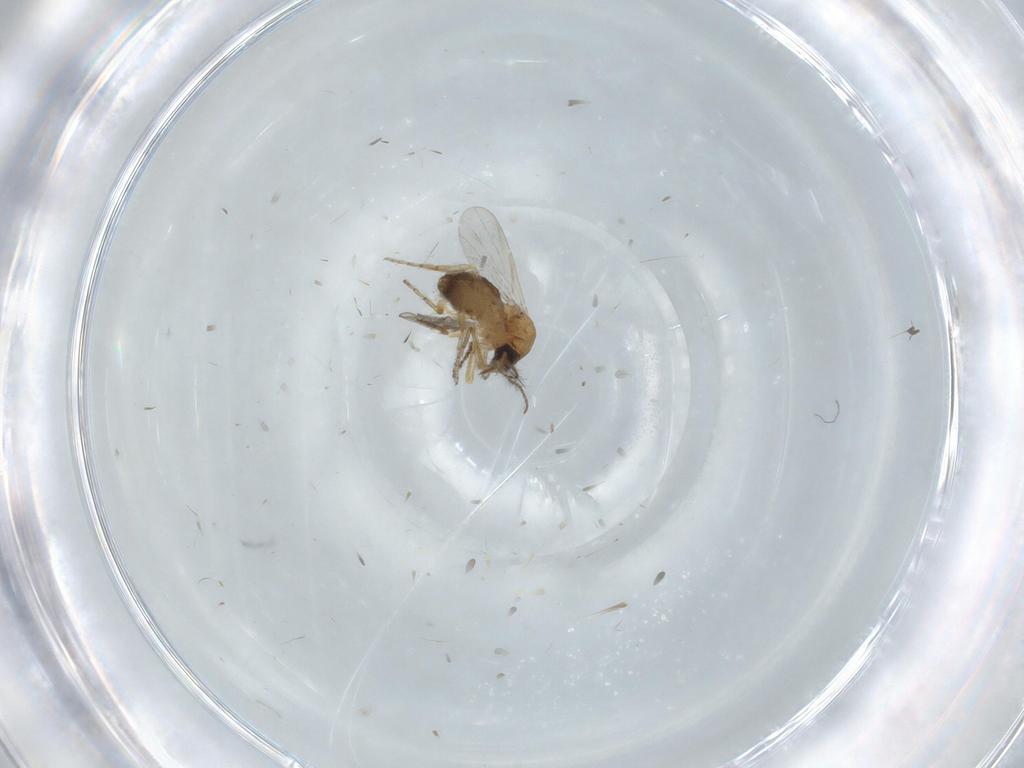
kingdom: Animalia
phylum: Arthropoda
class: Insecta
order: Diptera
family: Ceratopogonidae
